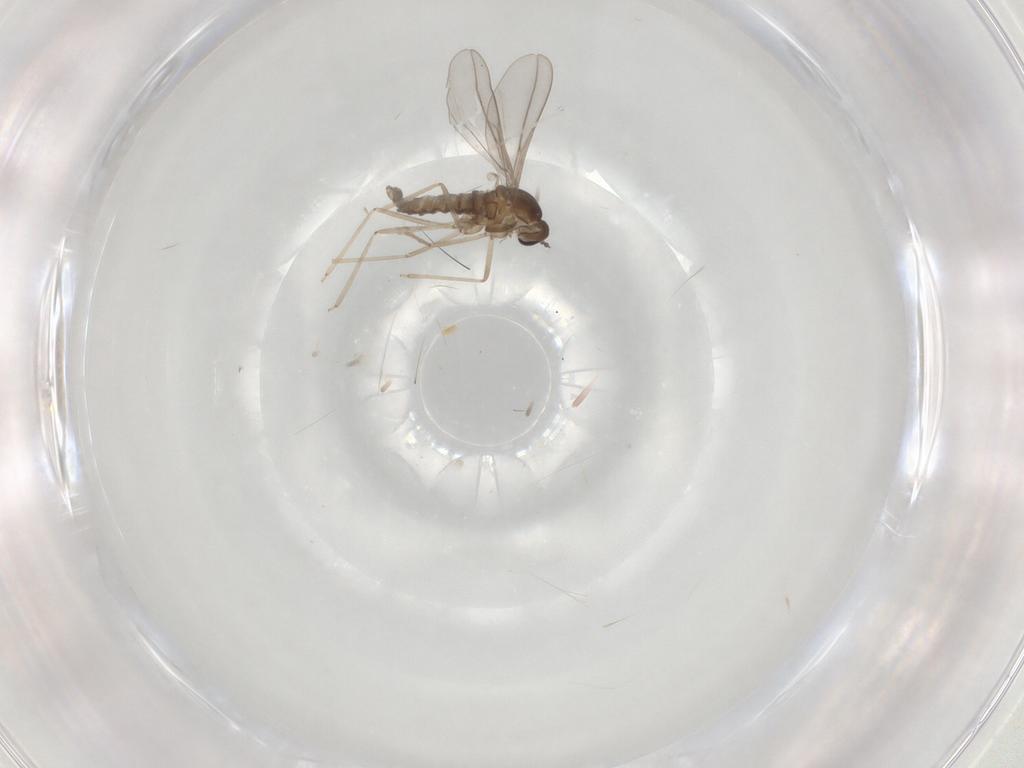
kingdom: Animalia
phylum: Arthropoda
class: Insecta
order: Diptera
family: Cecidomyiidae
